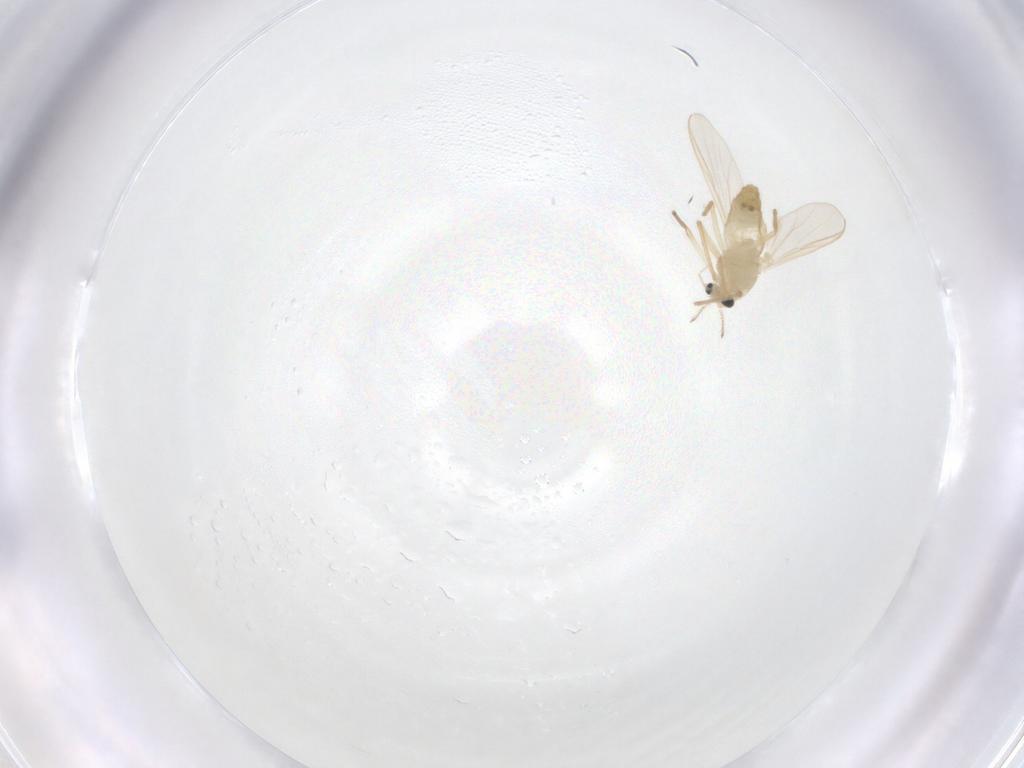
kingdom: Animalia
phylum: Arthropoda
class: Insecta
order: Diptera
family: Chironomidae
